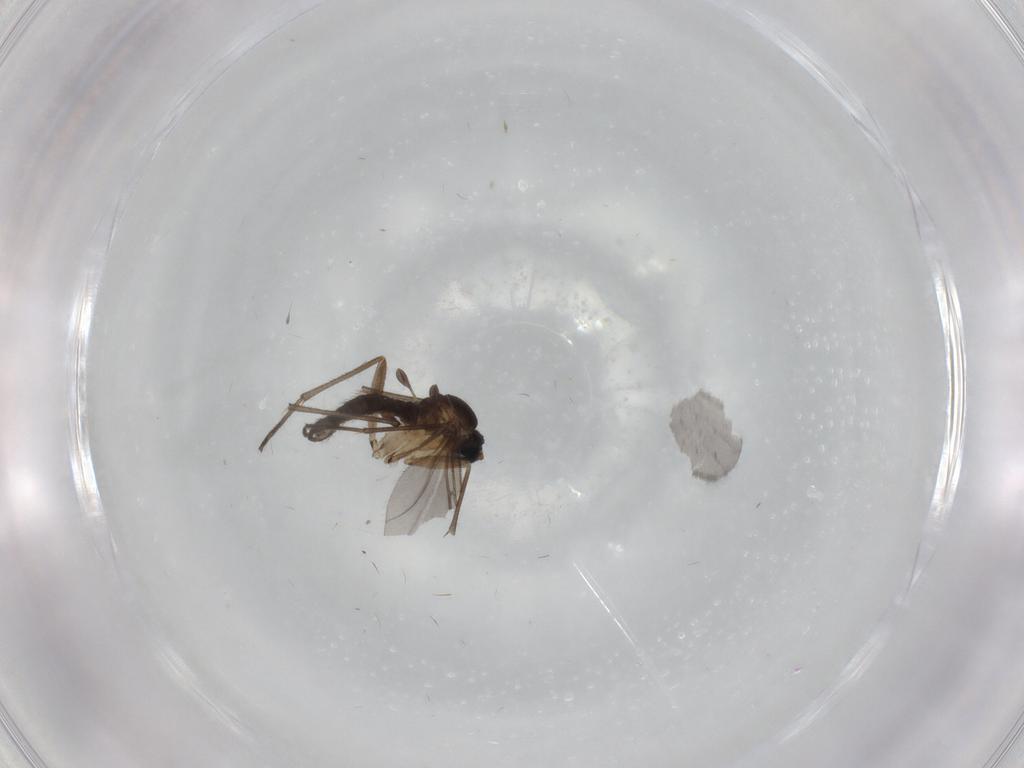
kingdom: Animalia
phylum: Arthropoda
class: Insecta
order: Diptera
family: Sciaridae
